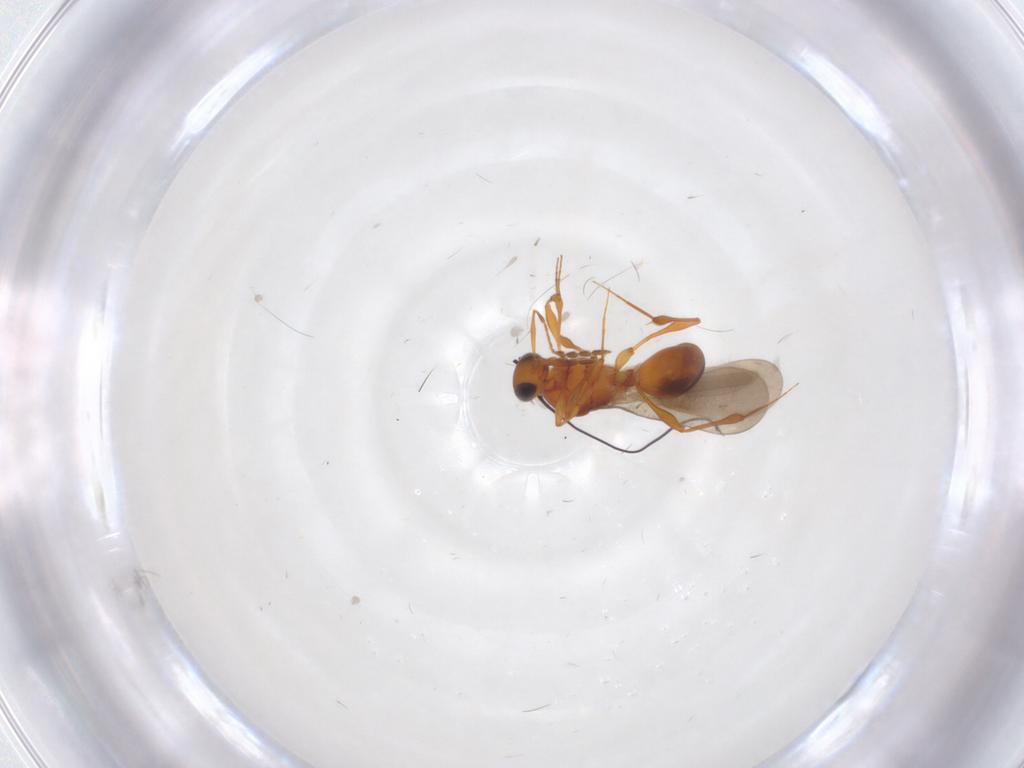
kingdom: Animalia
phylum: Arthropoda
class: Insecta
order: Hymenoptera
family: Platygastridae
